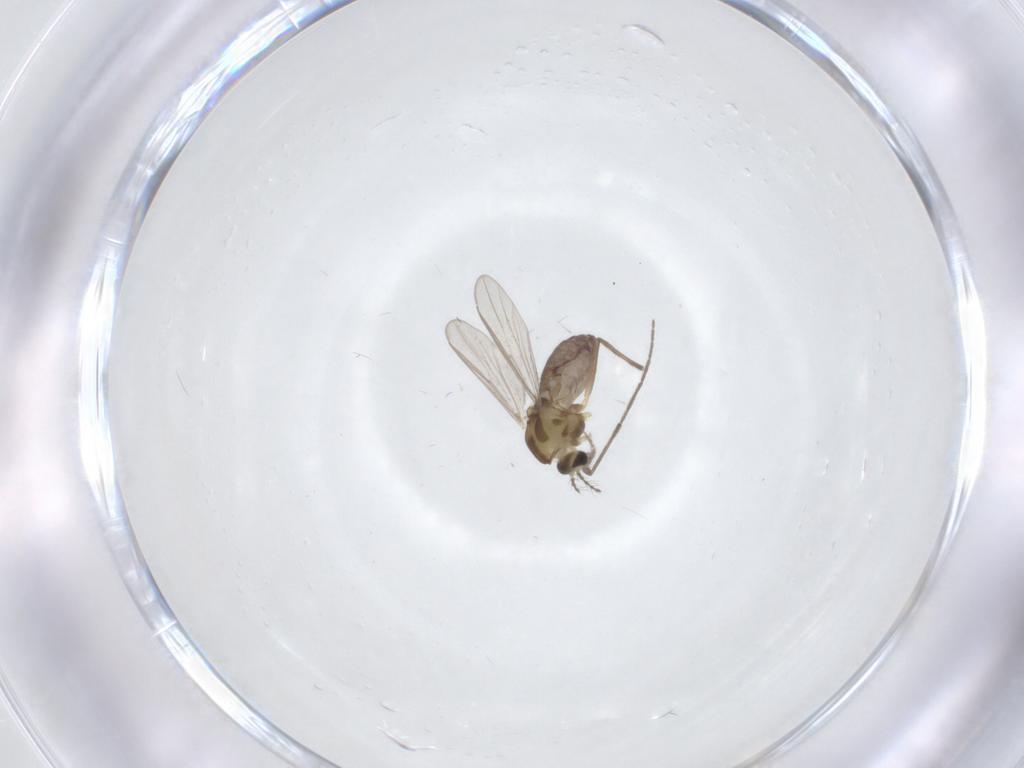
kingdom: Animalia
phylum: Arthropoda
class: Insecta
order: Diptera
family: Chironomidae
